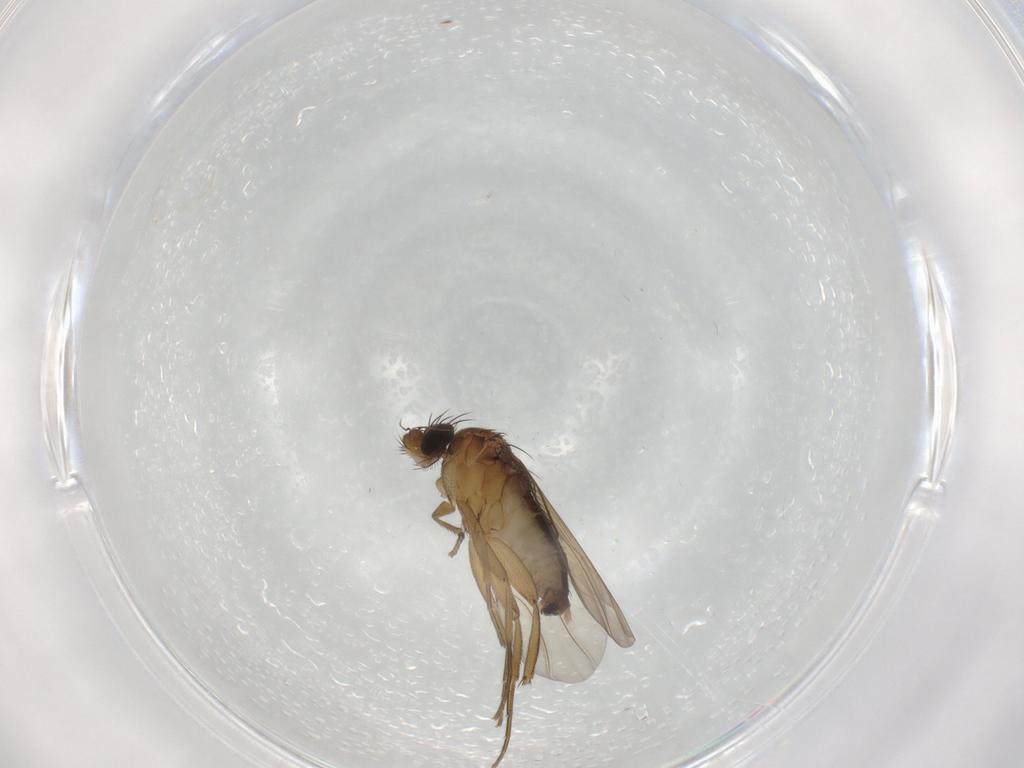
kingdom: Animalia
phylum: Arthropoda
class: Insecta
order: Diptera
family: Phoridae
